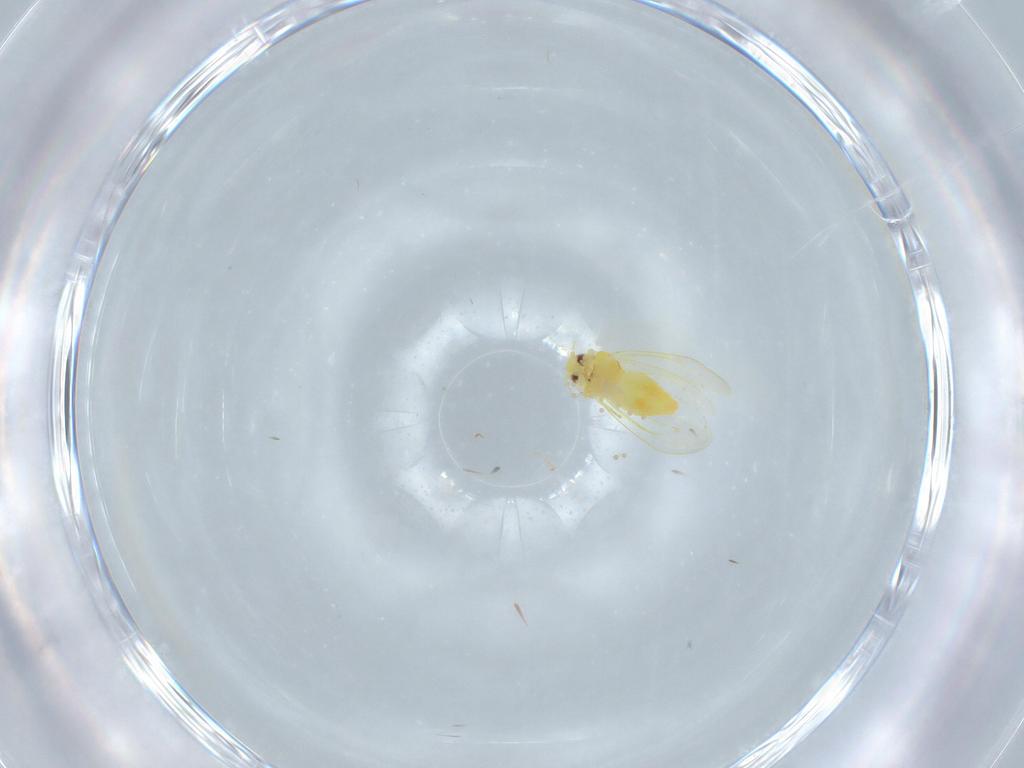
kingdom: Animalia
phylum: Arthropoda
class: Insecta
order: Hemiptera
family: Aleyrodidae
